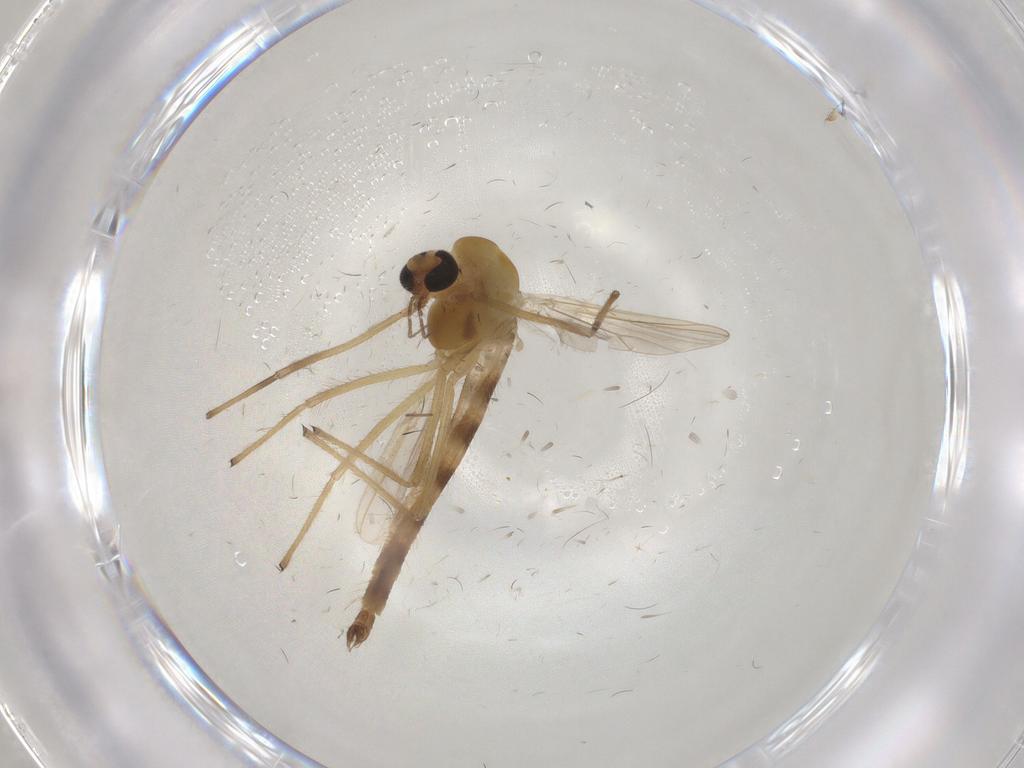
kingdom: Animalia
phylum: Arthropoda
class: Insecta
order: Diptera
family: Chironomidae
